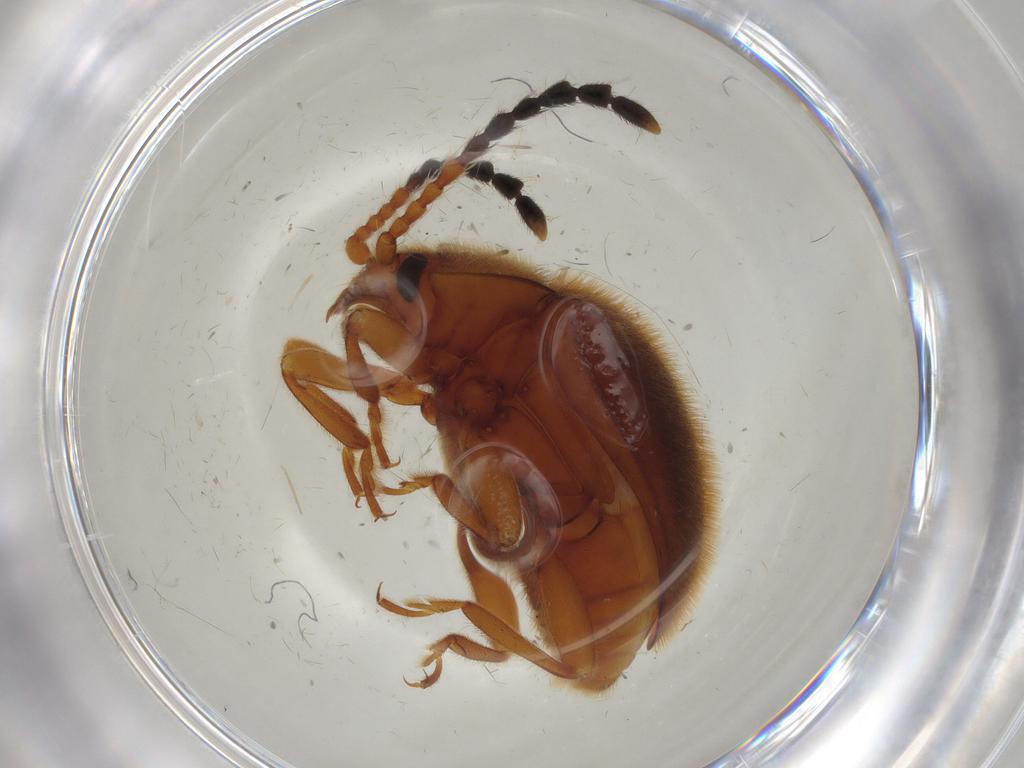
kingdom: Animalia
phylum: Arthropoda
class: Insecta
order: Coleoptera
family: Endomychidae
